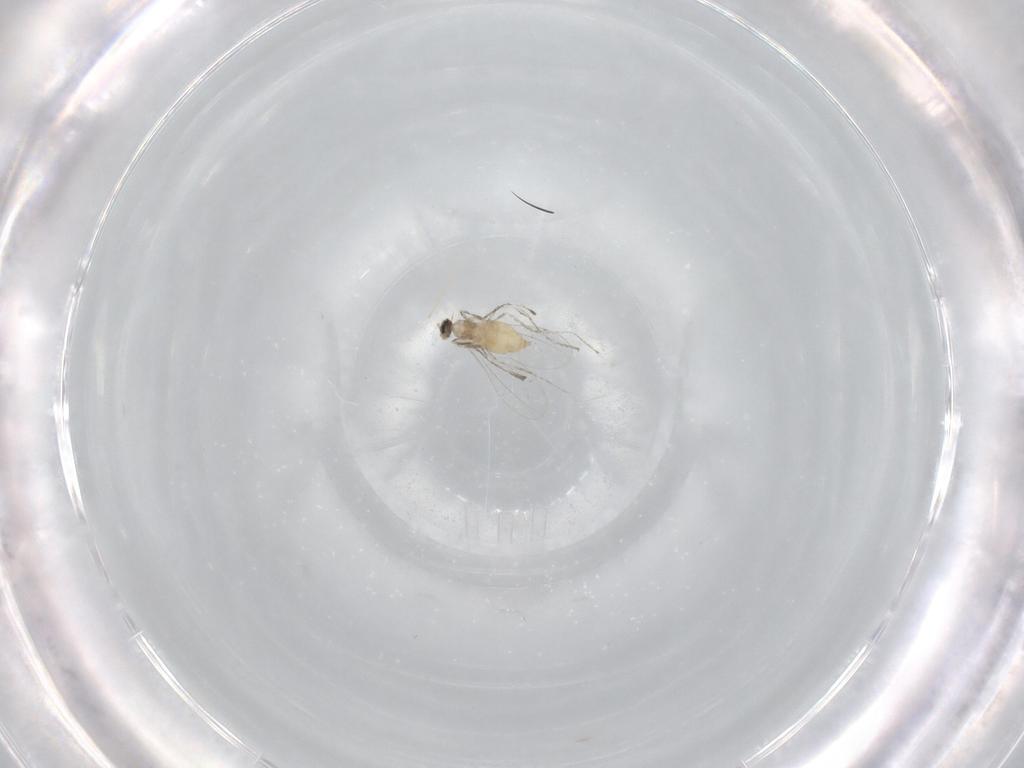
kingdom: Animalia
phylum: Arthropoda
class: Insecta
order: Diptera
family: Cecidomyiidae
